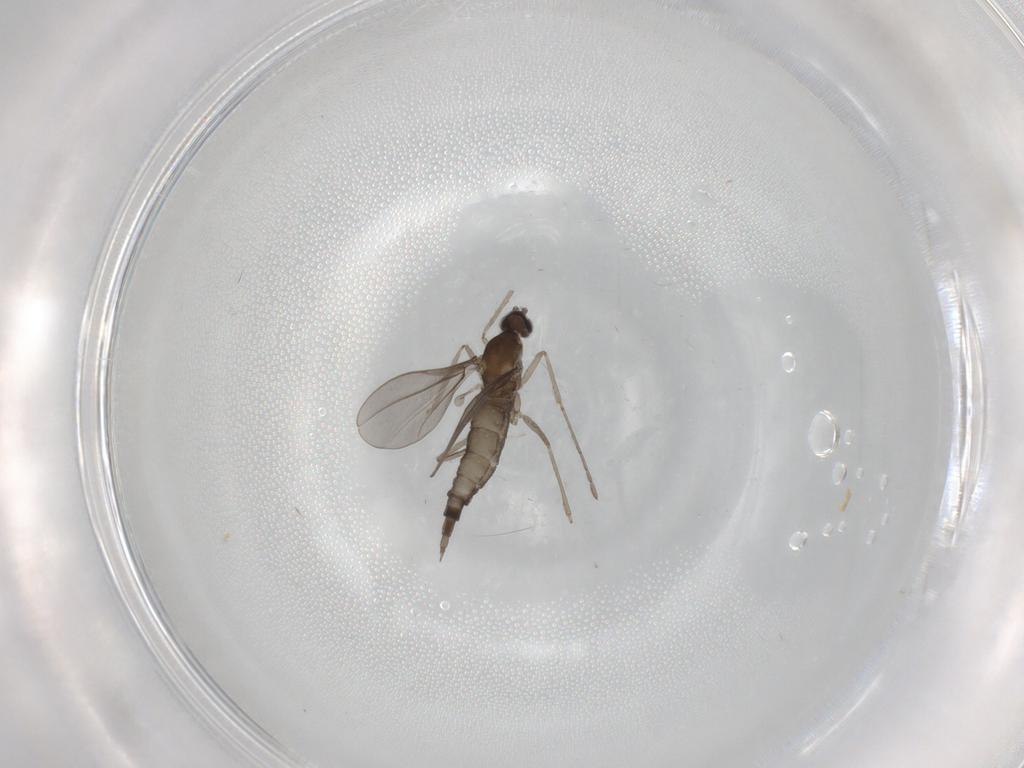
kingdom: Animalia
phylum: Arthropoda
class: Insecta
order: Diptera
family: Cecidomyiidae
